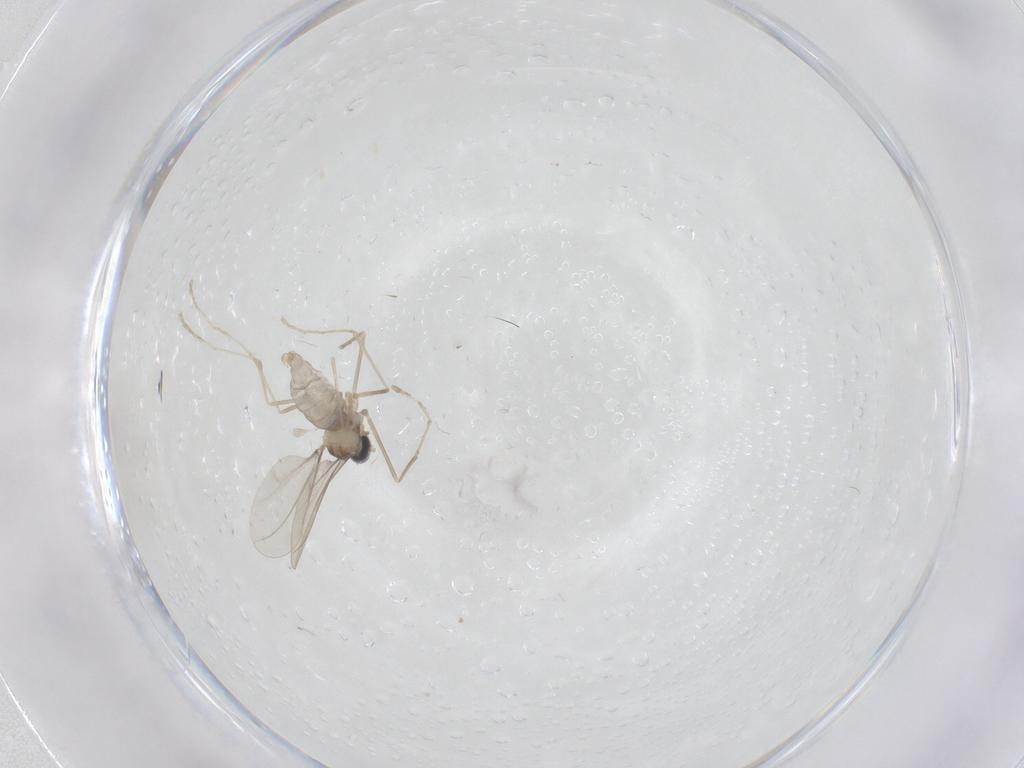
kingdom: Animalia
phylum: Arthropoda
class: Insecta
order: Diptera
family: Cecidomyiidae
